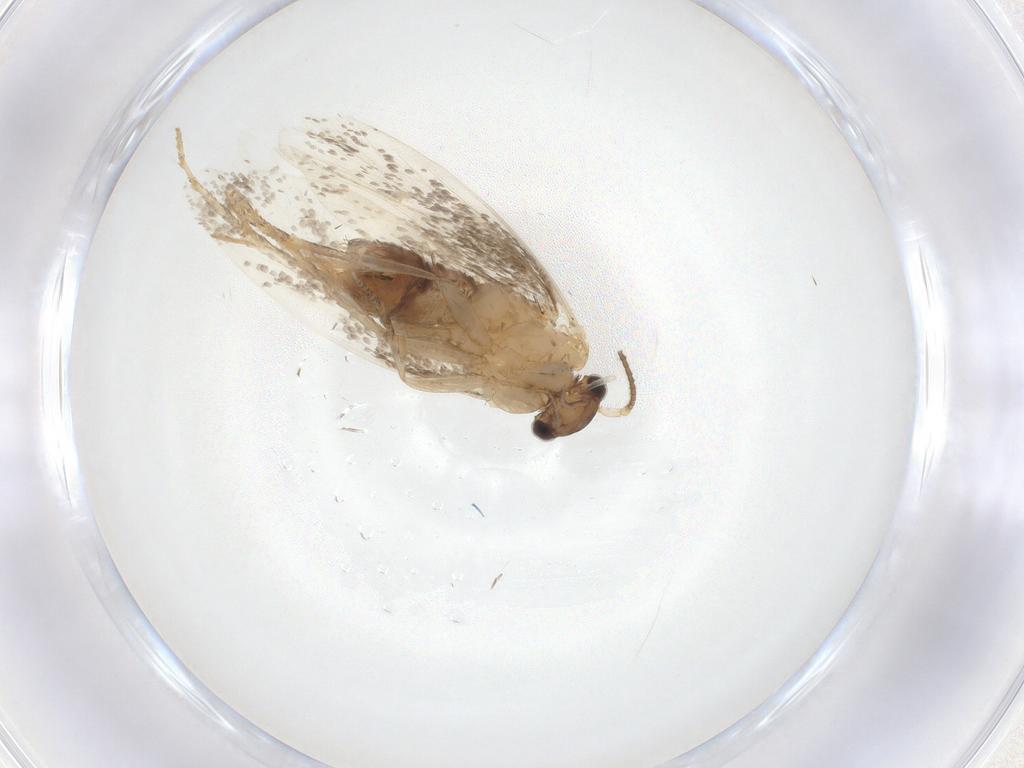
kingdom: Animalia
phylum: Arthropoda
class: Insecta
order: Lepidoptera
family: Dryadaulidae
